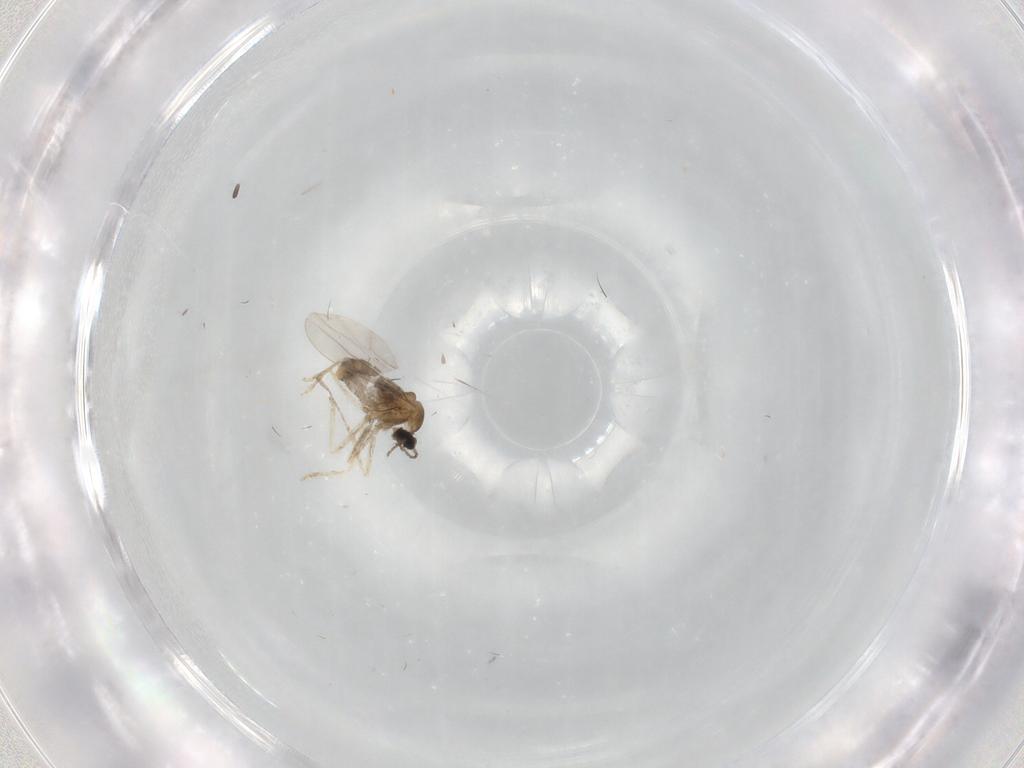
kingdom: Animalia
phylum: Arthropoda
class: Insecta
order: Diptera
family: Cecidomyiidae
